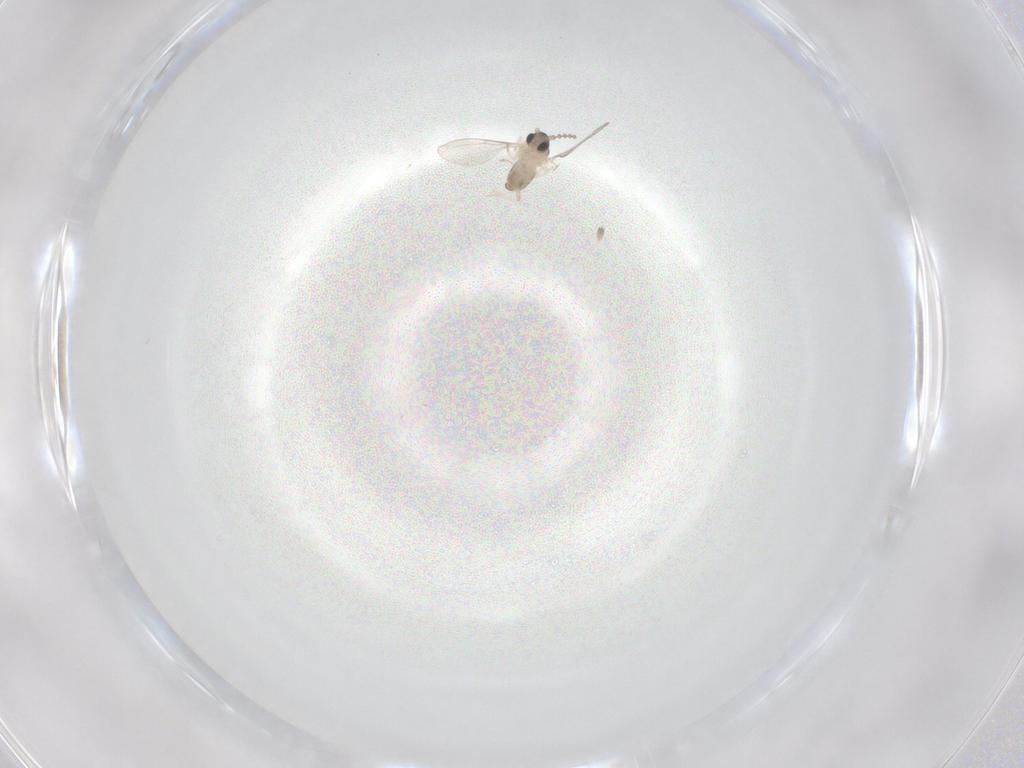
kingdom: Animalia
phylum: Arthropoda
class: Insecta
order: Diptera
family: Cecidomyiidae
